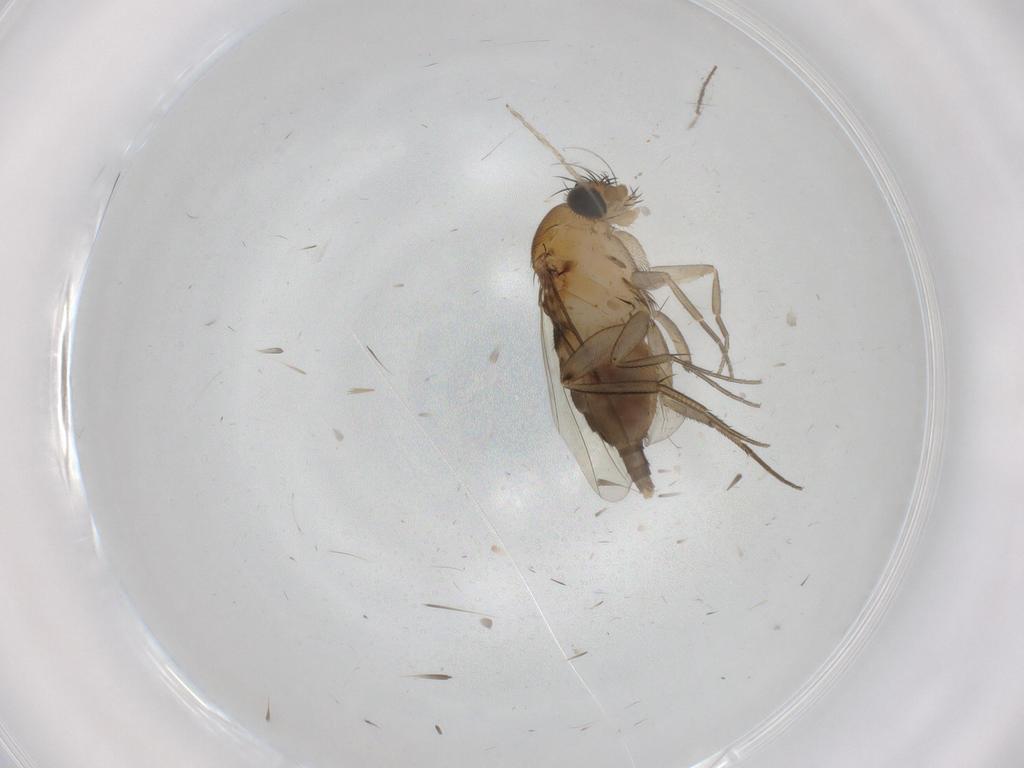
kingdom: Animalia
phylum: Arthropoda
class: Insecta
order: Diptera
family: Phoridae
